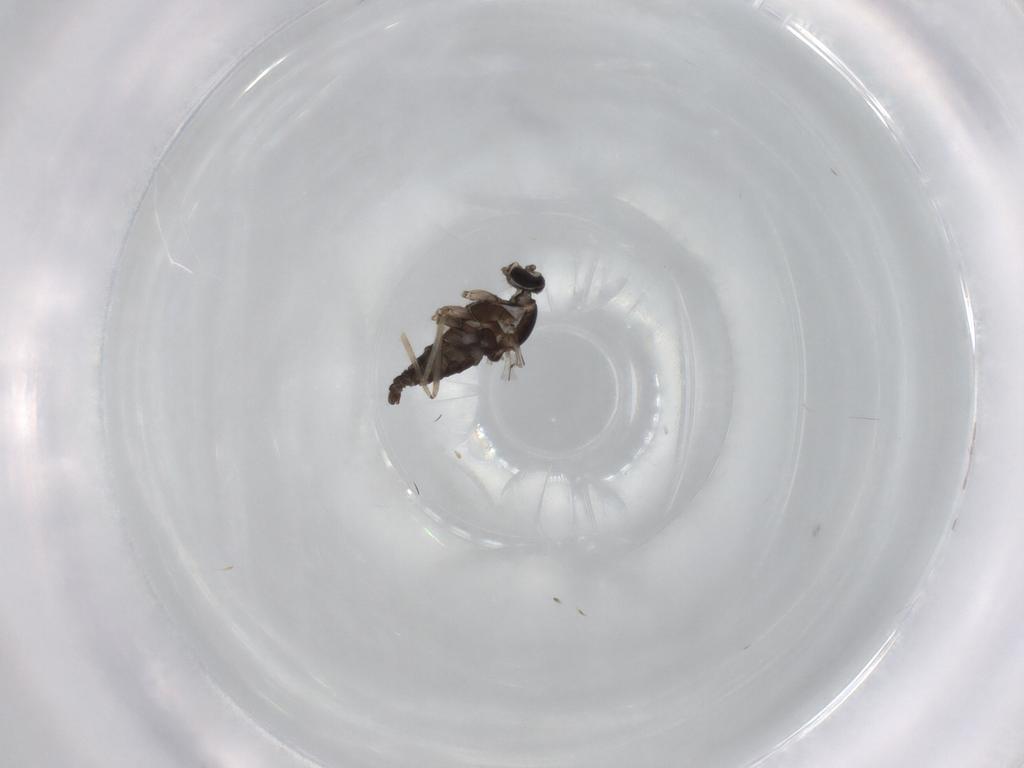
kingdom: Animalia
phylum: Arthropoda
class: Insecta
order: Diptera
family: Cecidomyiidae
